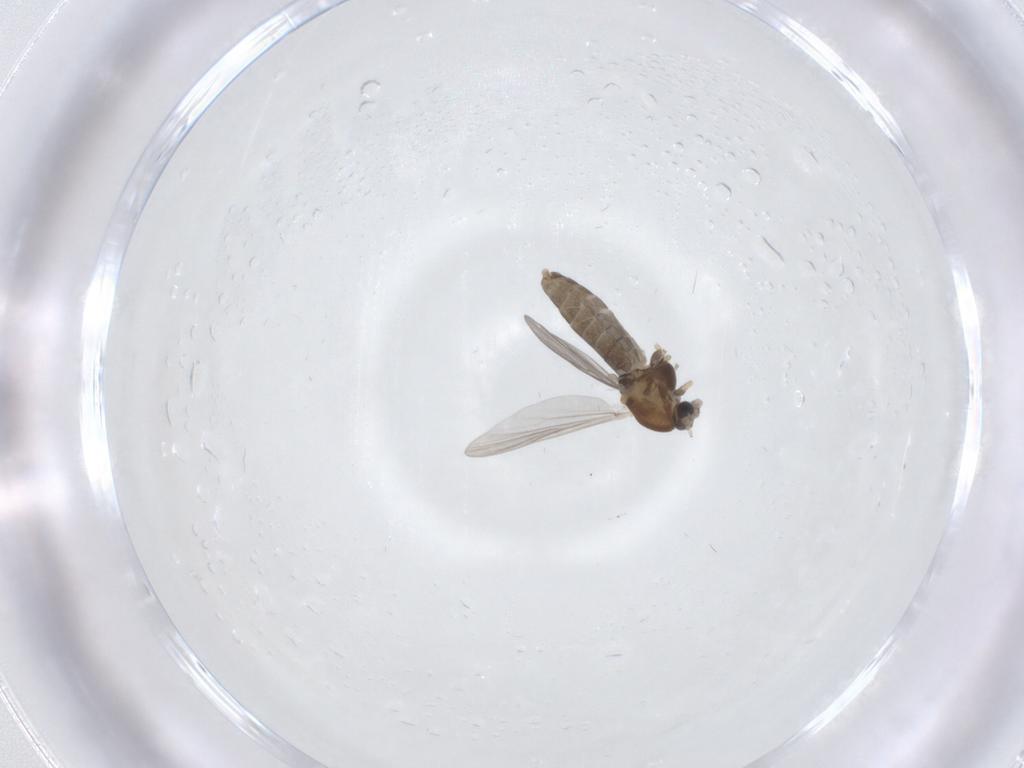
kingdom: Animalia
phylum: Arthropoda
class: Insecta
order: Diptera
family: Chironomidae
